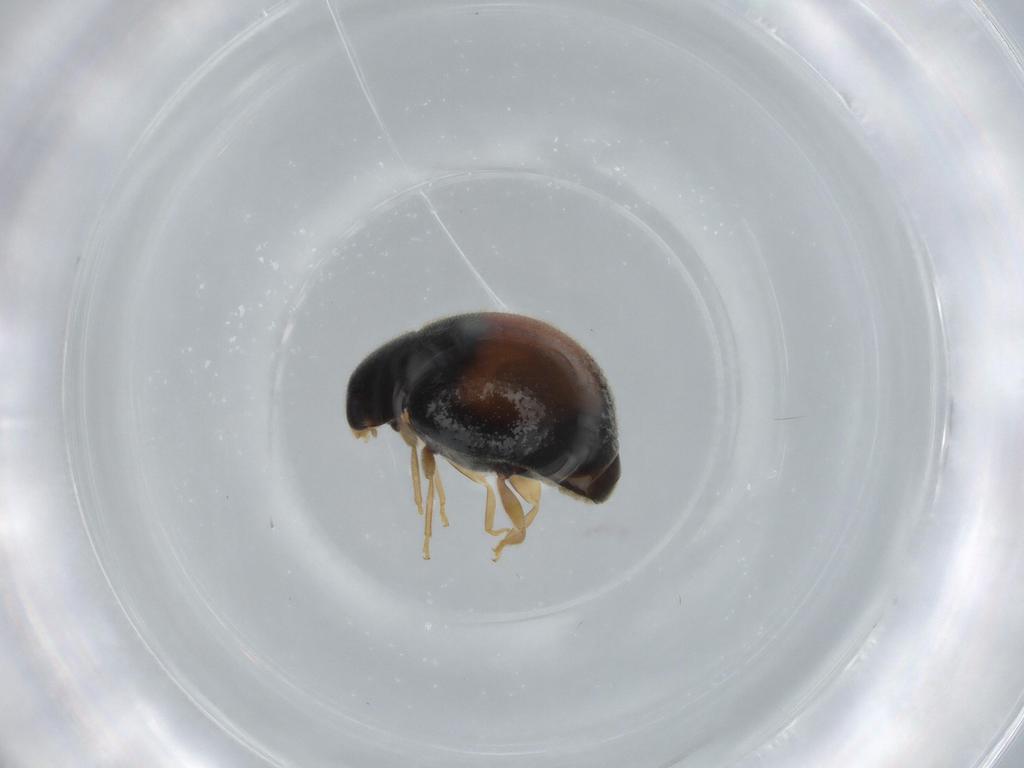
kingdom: Animalia
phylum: Arthropoda
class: Insecta
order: Coleoptera
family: Coccinellidae
